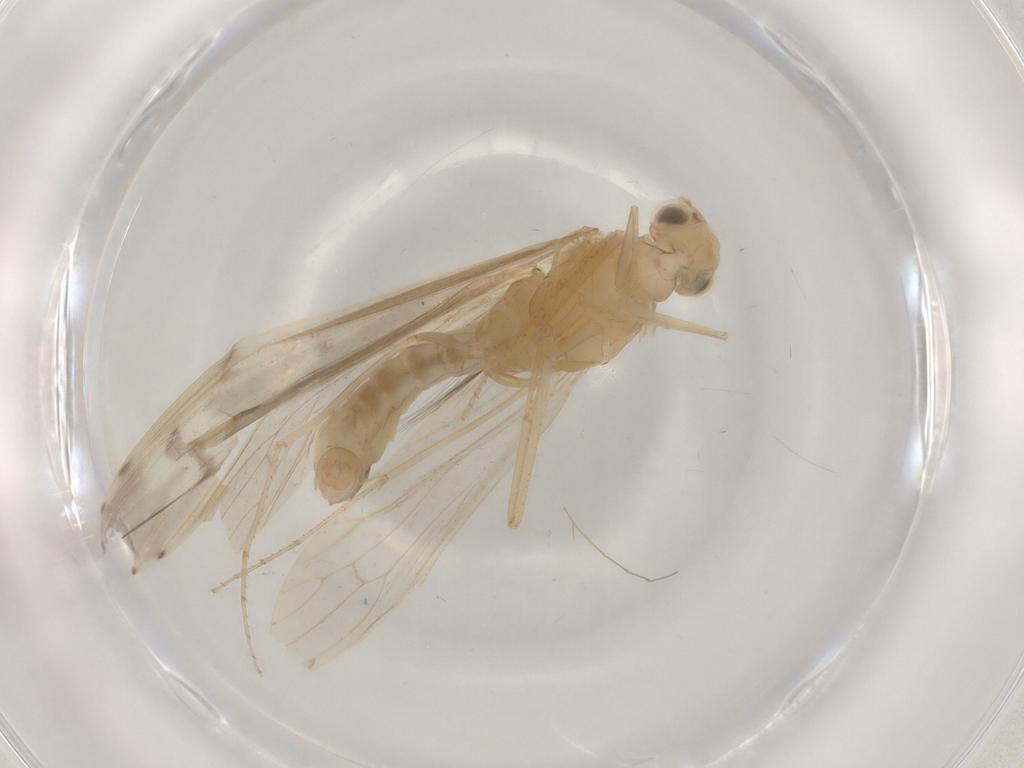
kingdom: Animalia
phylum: Arthropoda
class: Insecta
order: Trichoptera
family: Leptoceridae
